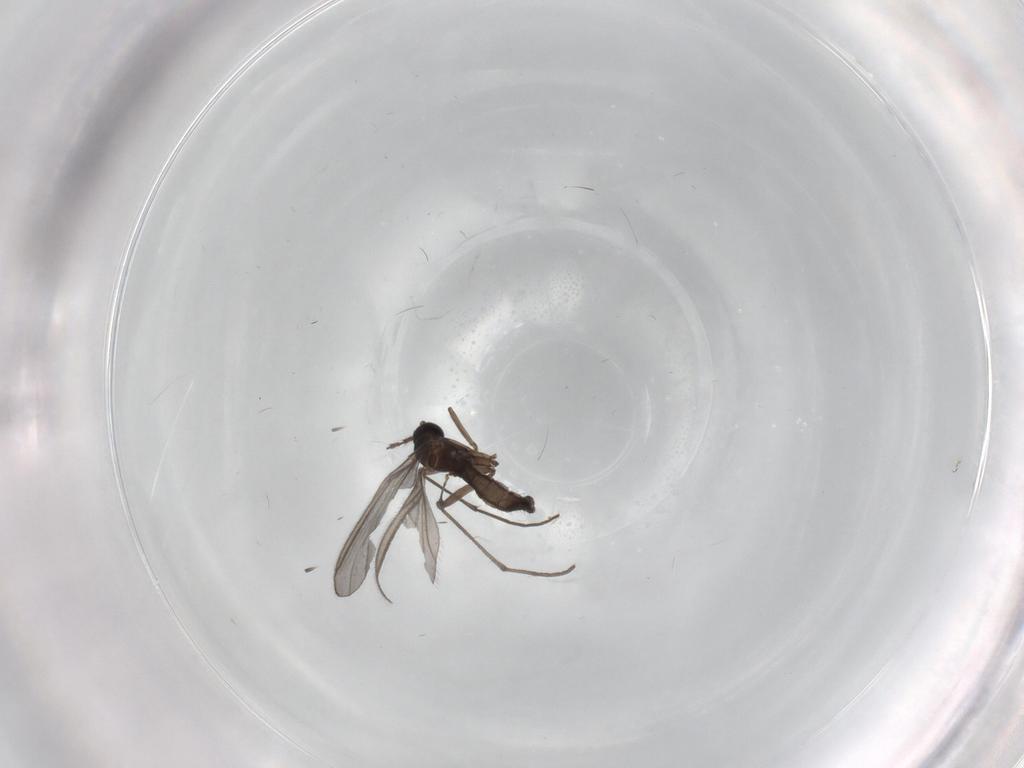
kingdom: Animalia
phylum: Arthropoda
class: Insecta
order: Diptera
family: Sciaridae
